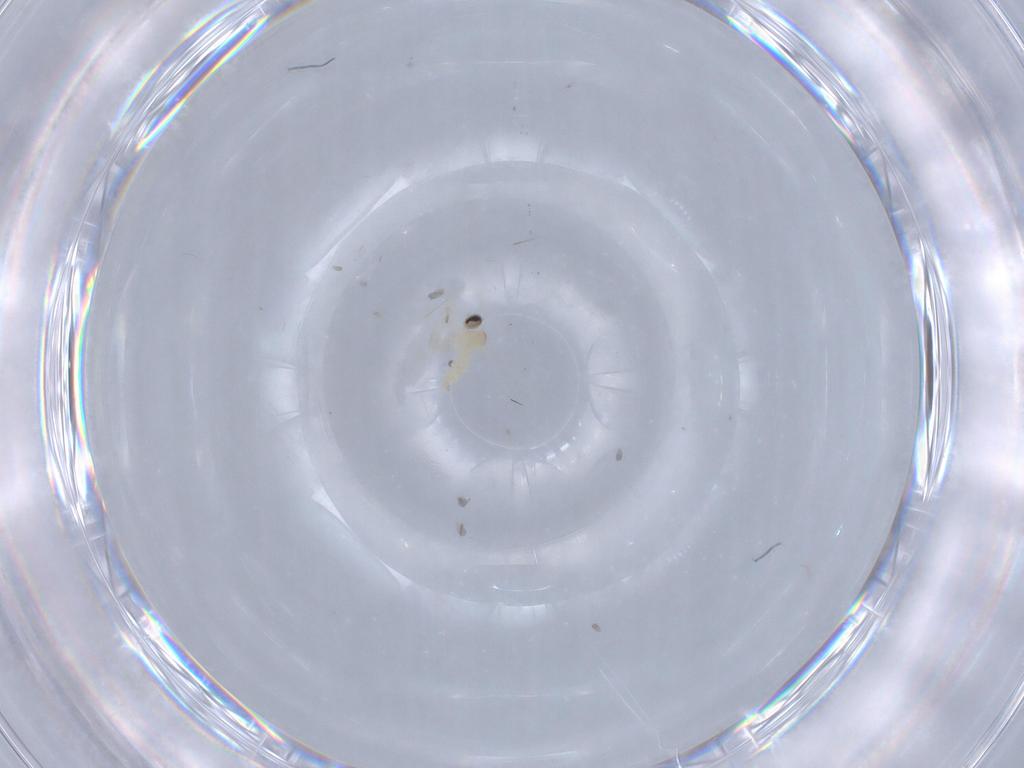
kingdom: Animalia
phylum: Arthropoda
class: Insecta
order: Diptera
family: Cecidomyiidae
